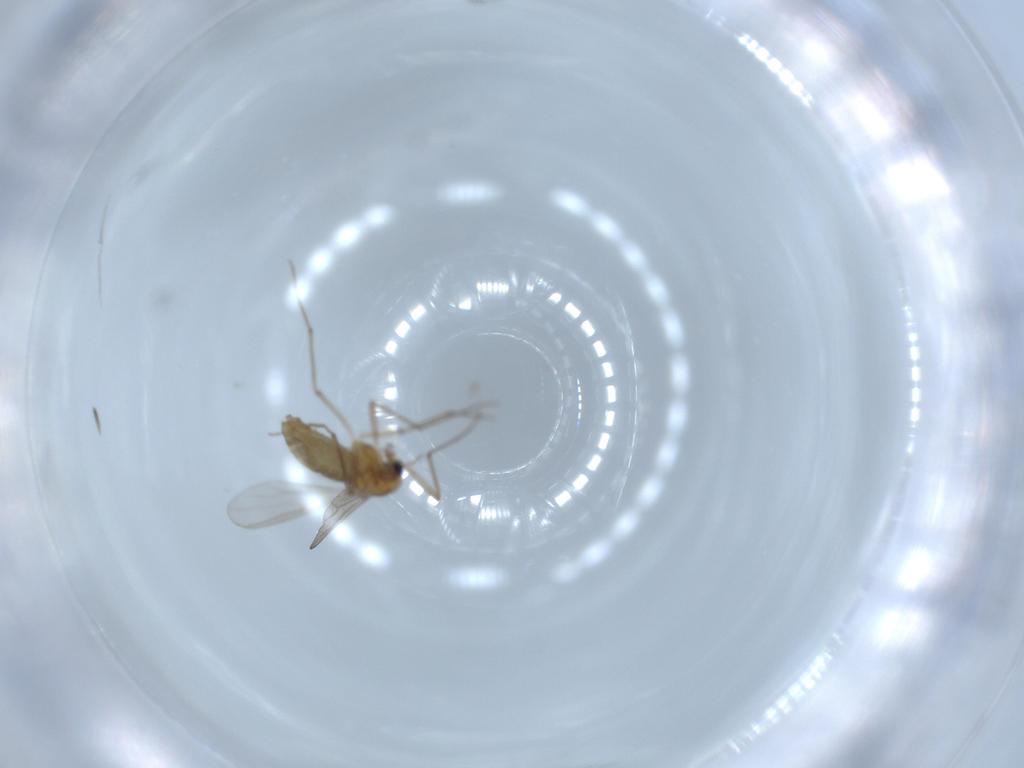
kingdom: Animalia
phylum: Arthropoda
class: Insecta
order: Diptera
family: Chironomidae
